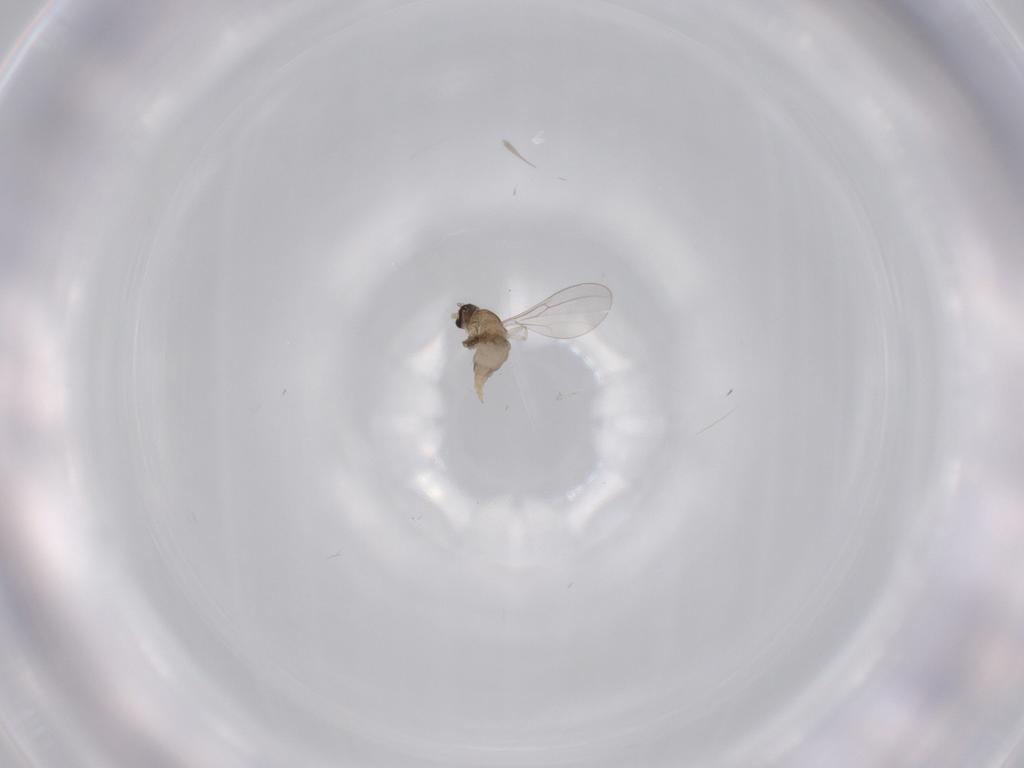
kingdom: Animalia
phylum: Arthropoda
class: Insecta
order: Diptera
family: Cecidomyiidae
